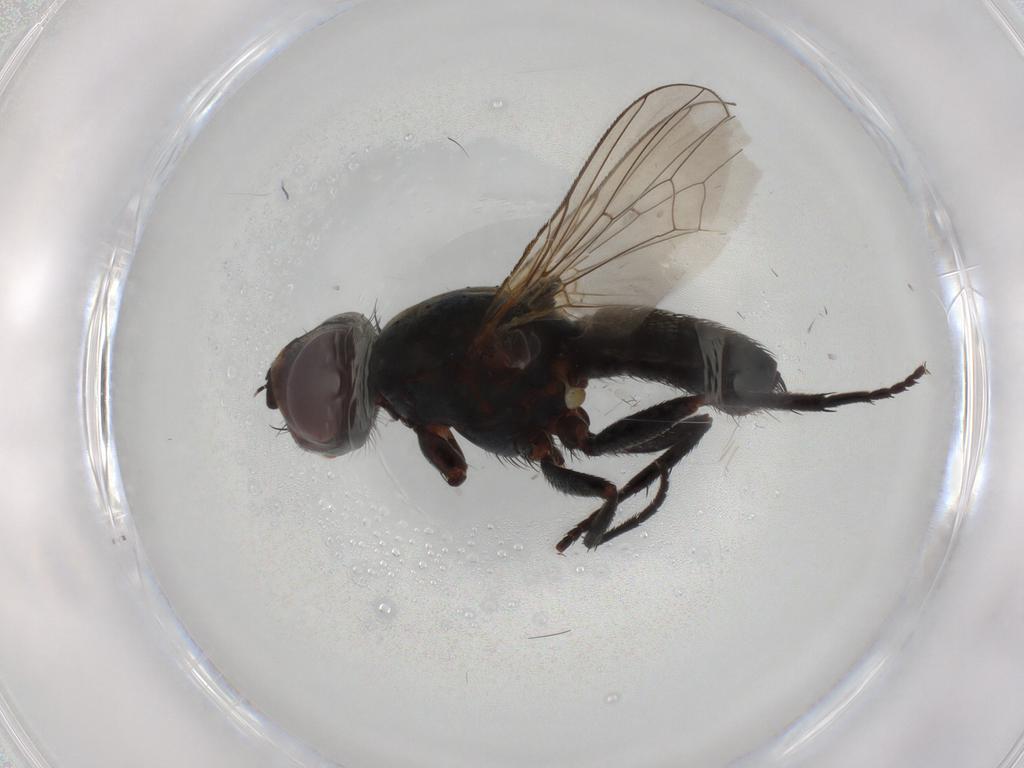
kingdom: Animalia
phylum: Arthropoda
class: Insecta
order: Diptera
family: Anthomyiidae
